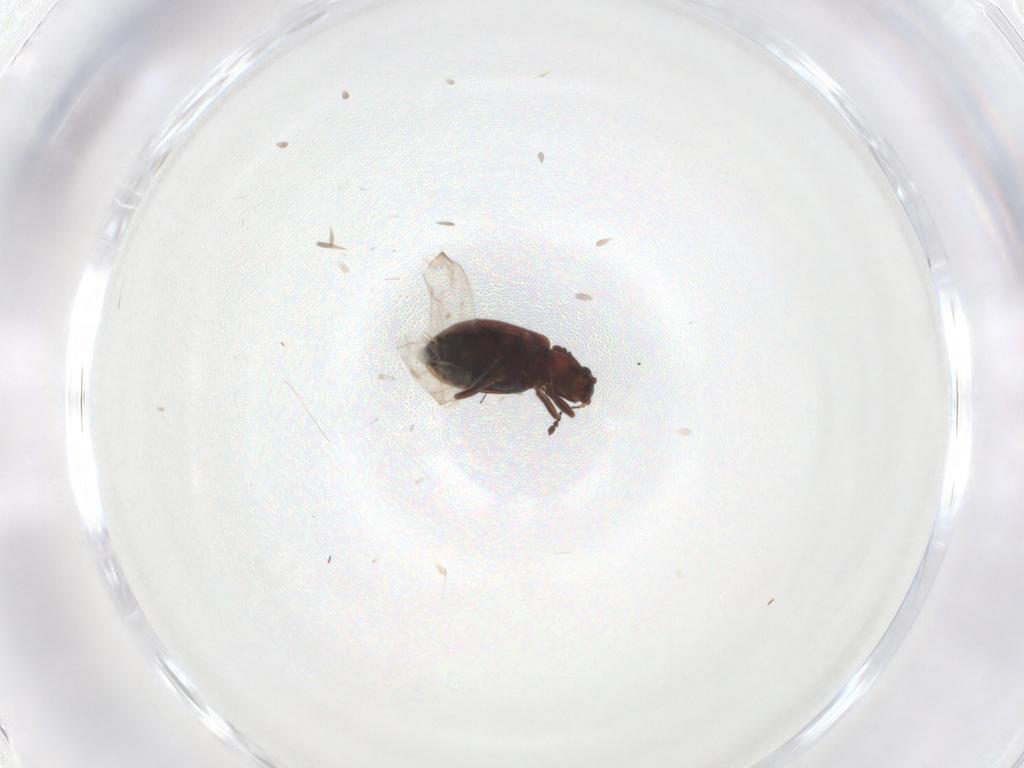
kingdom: Animalia
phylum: Arthropoda
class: Insecta
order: Coleoptera
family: Latridiidae
